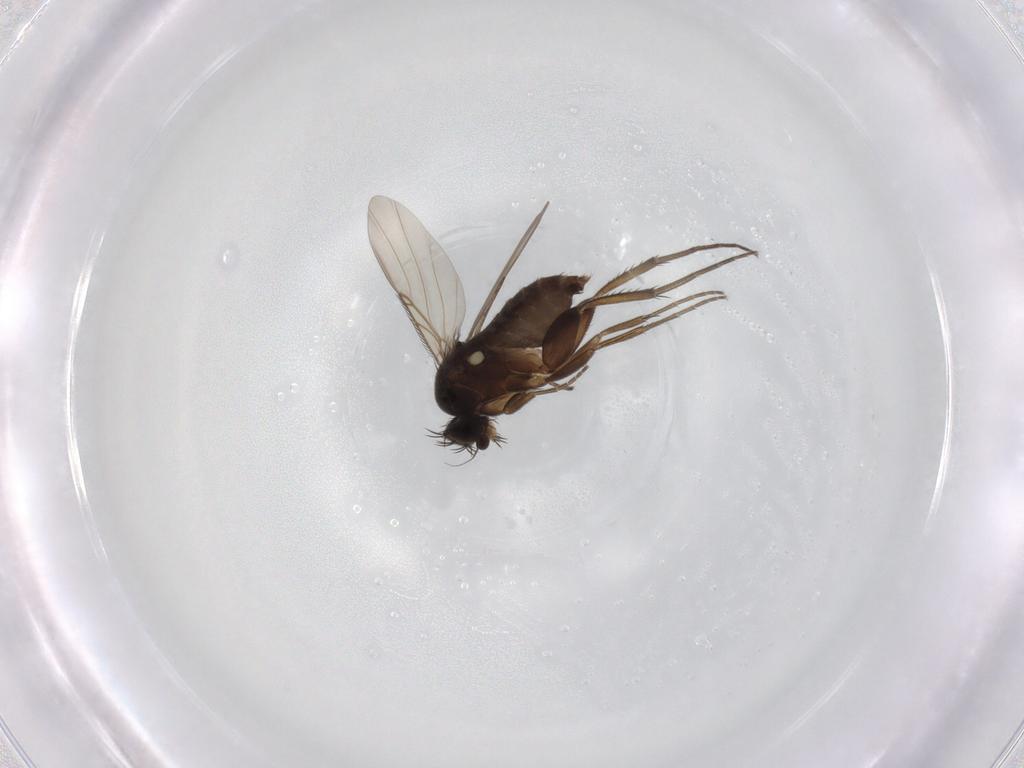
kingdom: Animalia
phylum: Arthropoda
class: Insecta
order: Diptera
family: Phoridae
